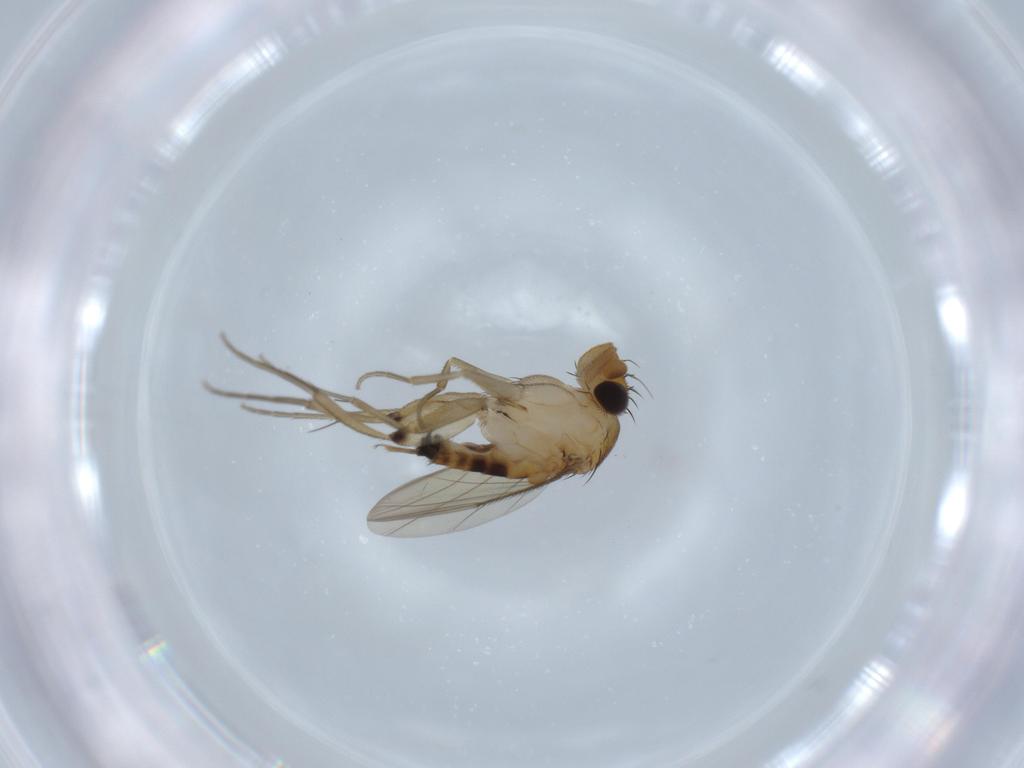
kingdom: Animalia
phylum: Arthropoda
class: Insecta
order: Diptera
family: Phoridae
